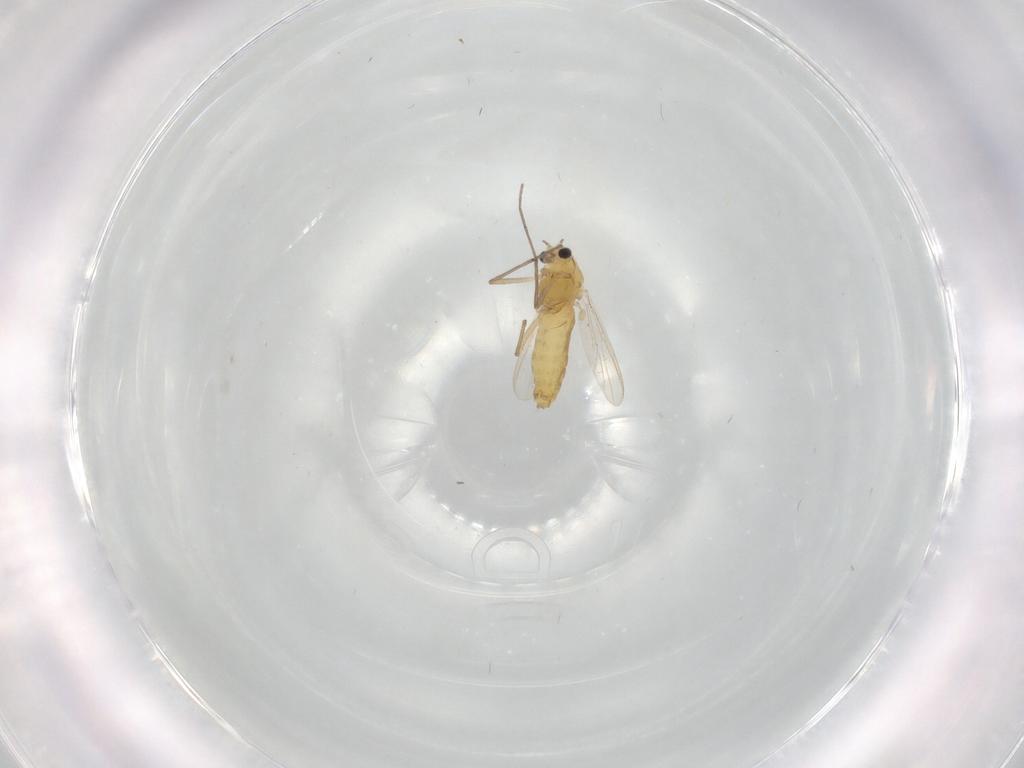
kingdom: Animalia
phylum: Arthropoda
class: Insecta
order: Diptera
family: Chironomidae
